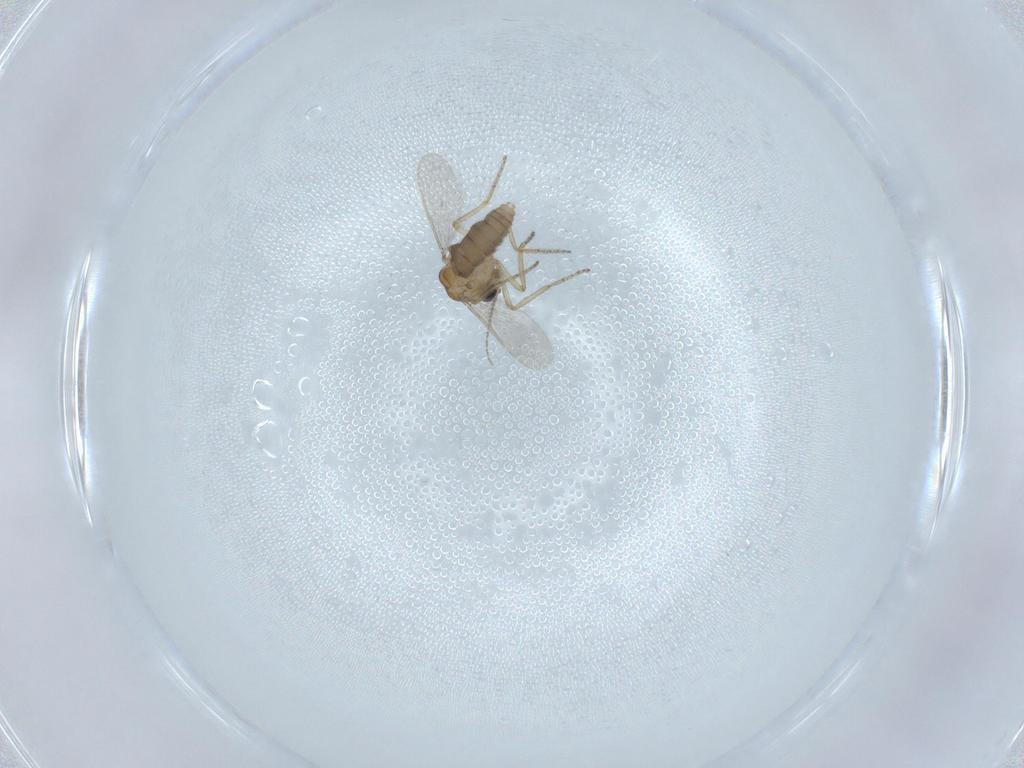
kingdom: Animalia
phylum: Arthropoda
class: Insecta
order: Diptera
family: Ceratopogonidae
